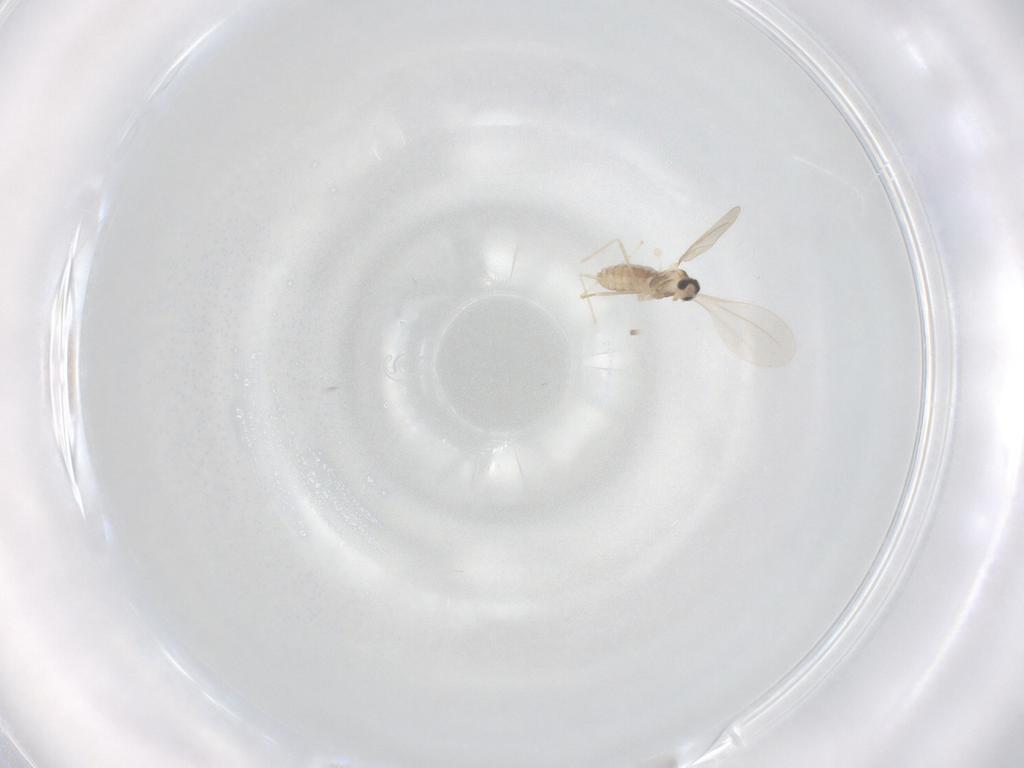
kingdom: Animalia
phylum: Arthropoda
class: Insecta
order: Diptera
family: Cecidomyiidae
